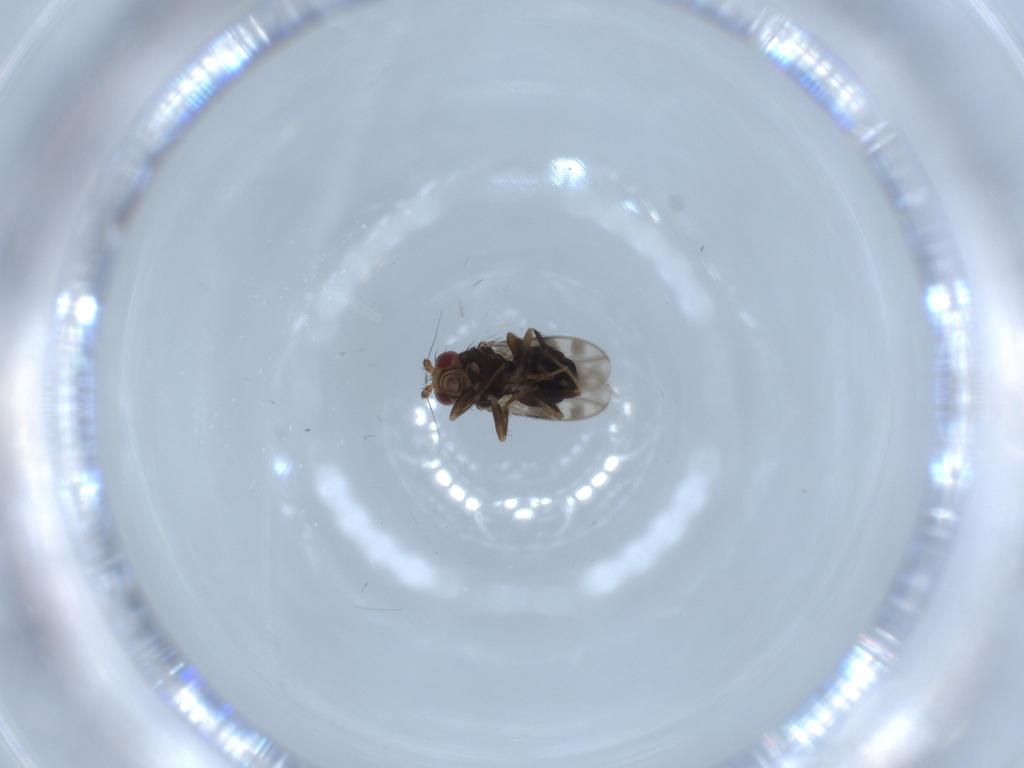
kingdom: Animalia
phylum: Arthropoda
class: Insecta
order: Diptera
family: Sphaeroceridae
